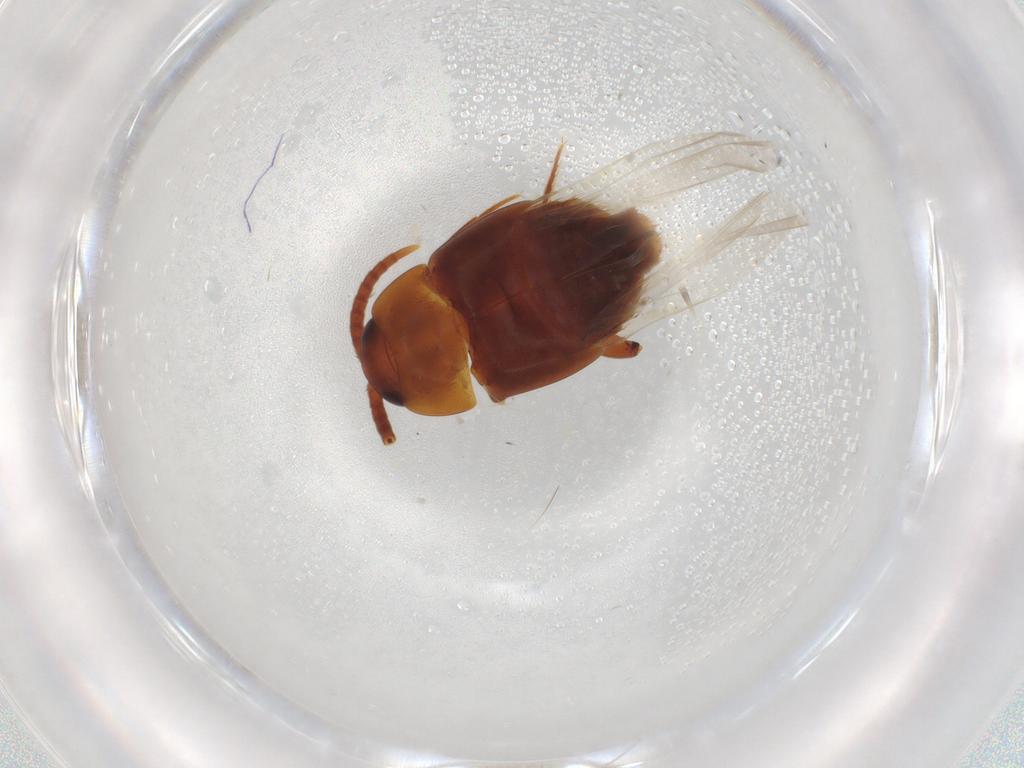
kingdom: Animalia
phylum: Arthropoda
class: Insecta
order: Coleoptera
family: Staphylinidae
